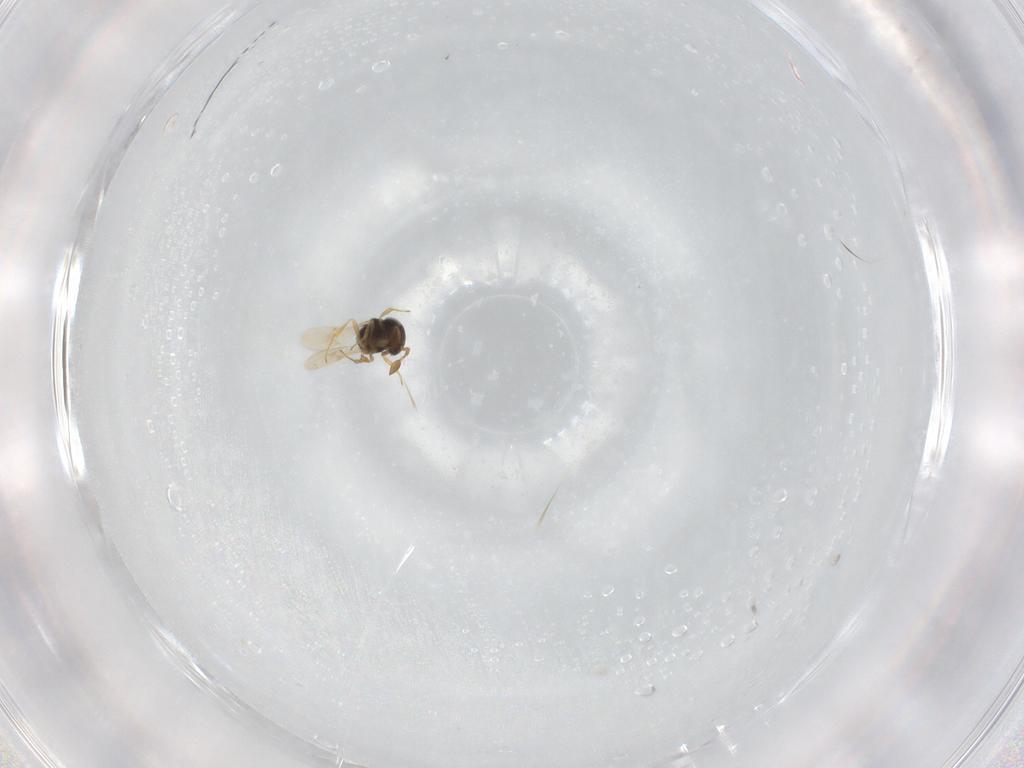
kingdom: Animalia
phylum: Arthropoda
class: Insecta
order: Hymenoptera
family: Scelionidae
